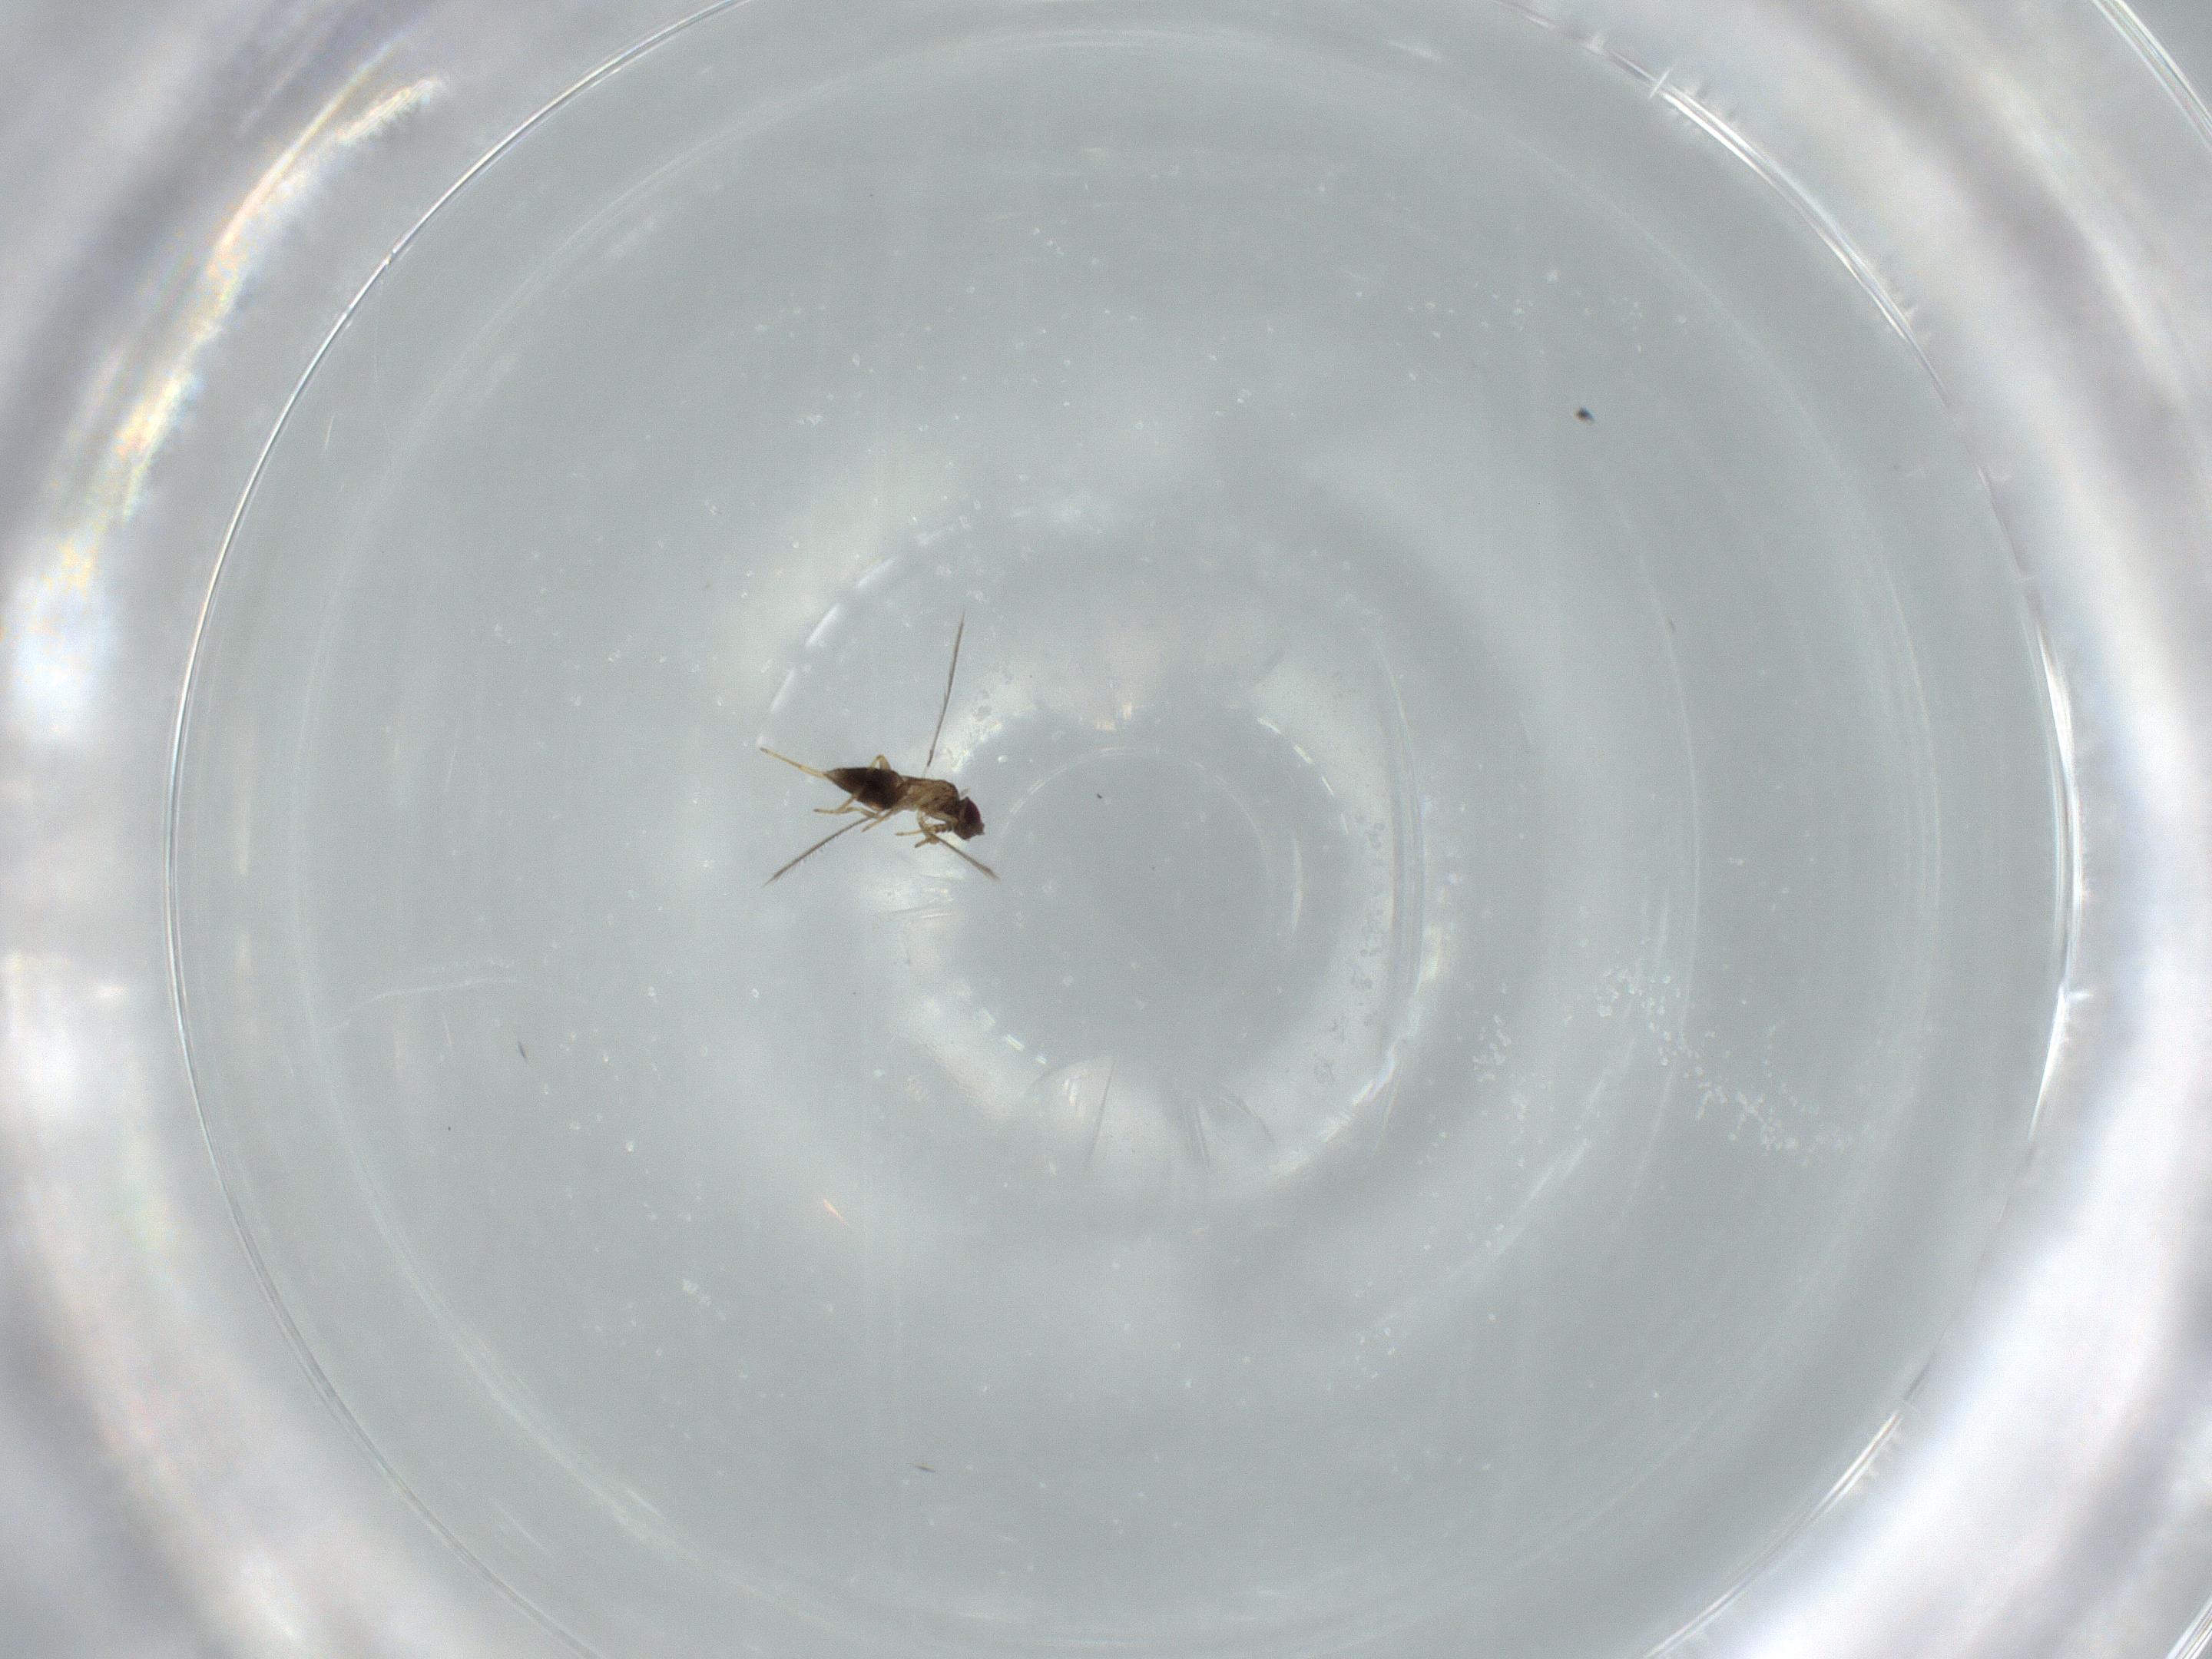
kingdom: Animalia
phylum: Arthropoda
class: Insecta
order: Hymenoptera
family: Mymaridae
